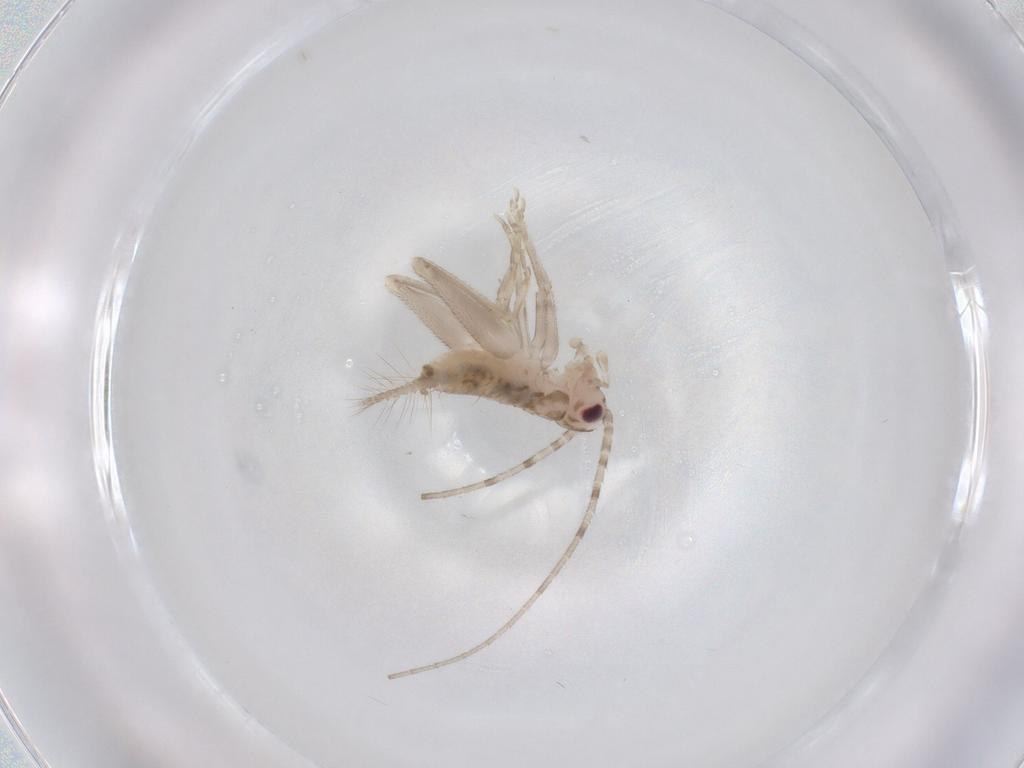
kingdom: Animalia
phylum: Arthropoda
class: Insecta
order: Orthoptera
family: Trigonidiidae
